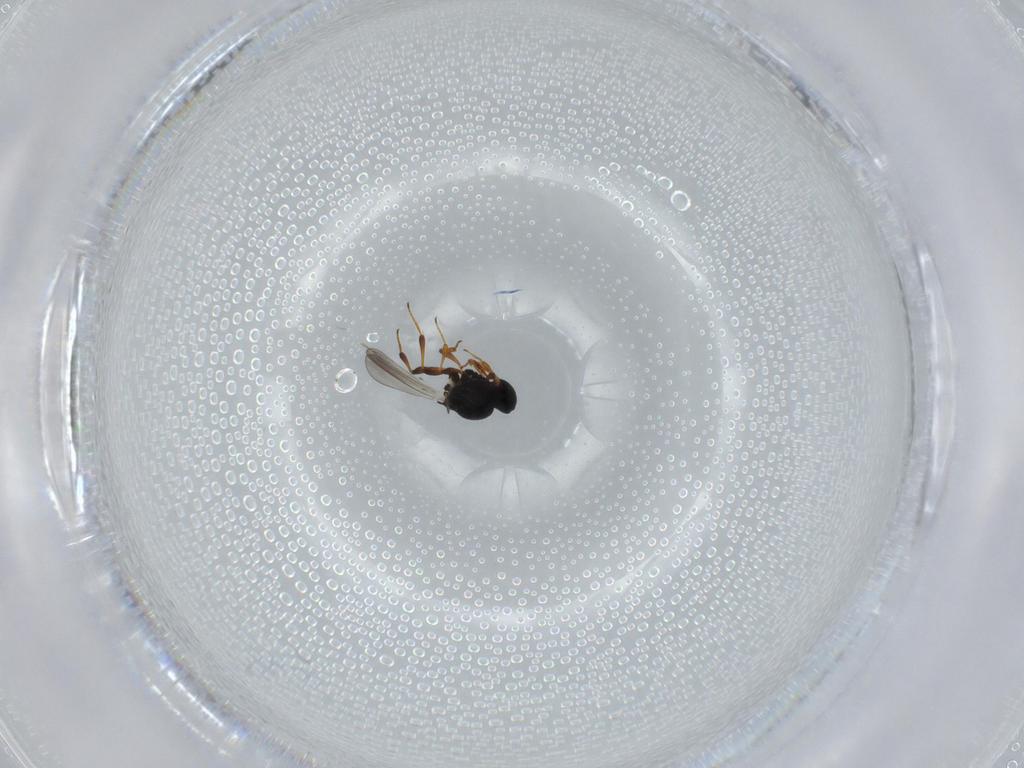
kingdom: Animalia
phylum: Arthropoda
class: Insecta
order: Hymenoptera
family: Platygastridae
